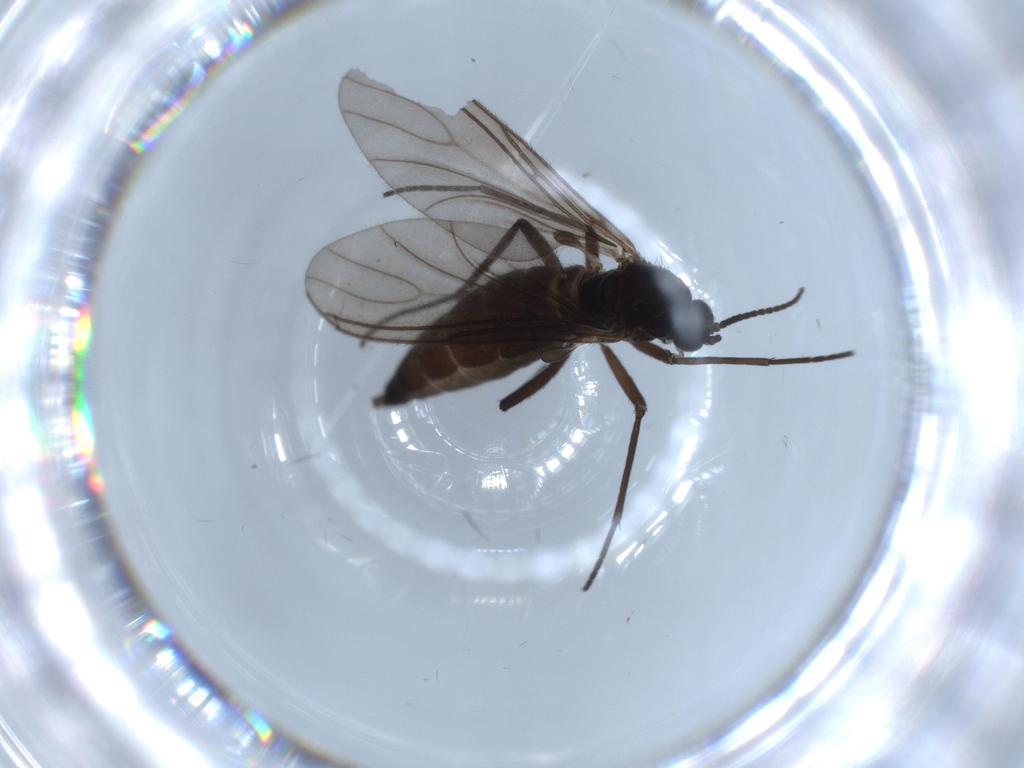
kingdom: Animalia
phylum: Arthropoda
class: Insecta
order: Diptera
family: Sciaridae
